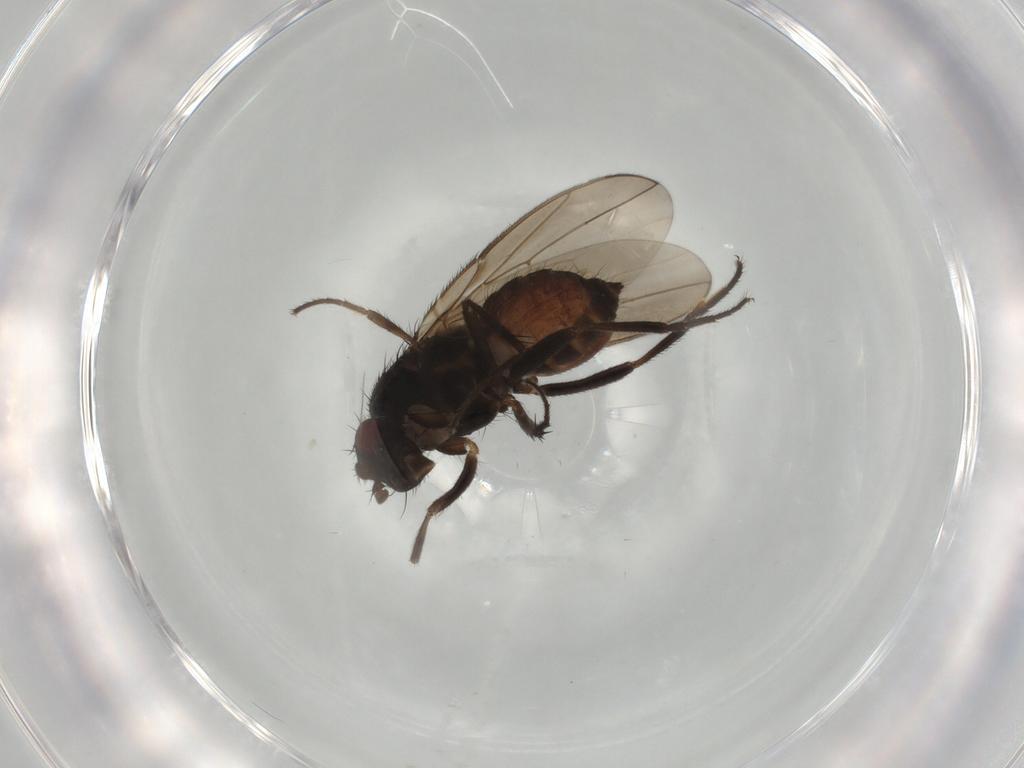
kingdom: Animalia
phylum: Arthropoda
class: Insecta
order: Diptera
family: Sphaeroceridae
